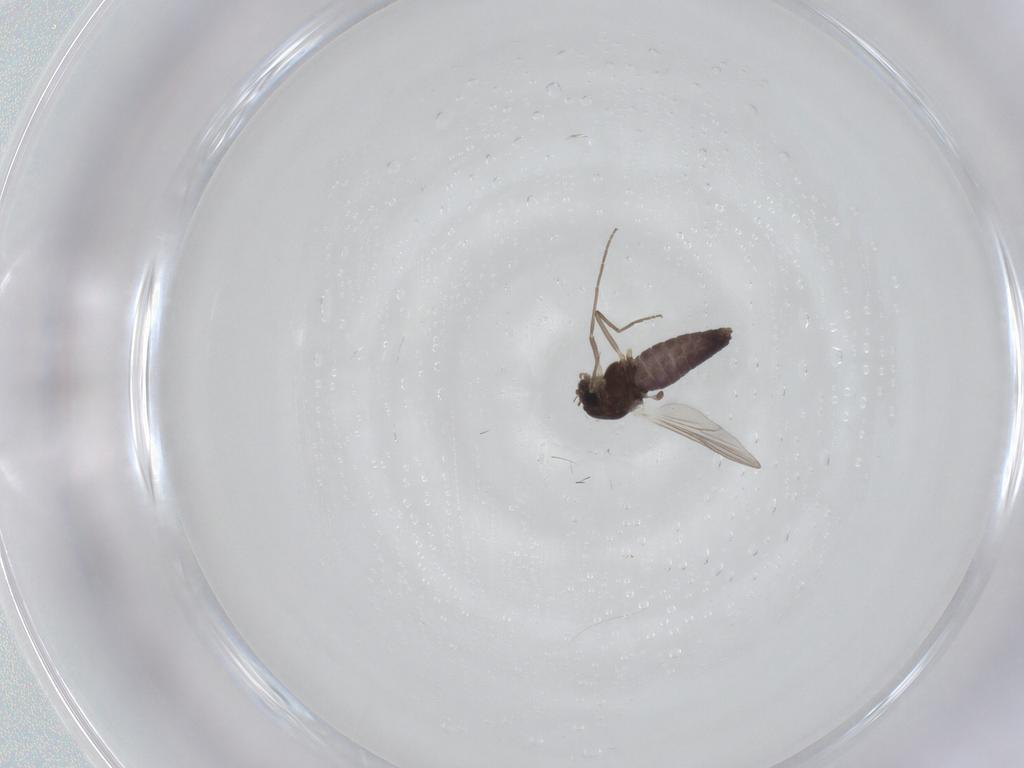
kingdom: Animalia
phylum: Arthropoda
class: Insecta
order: Diptera
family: Chironomidae
